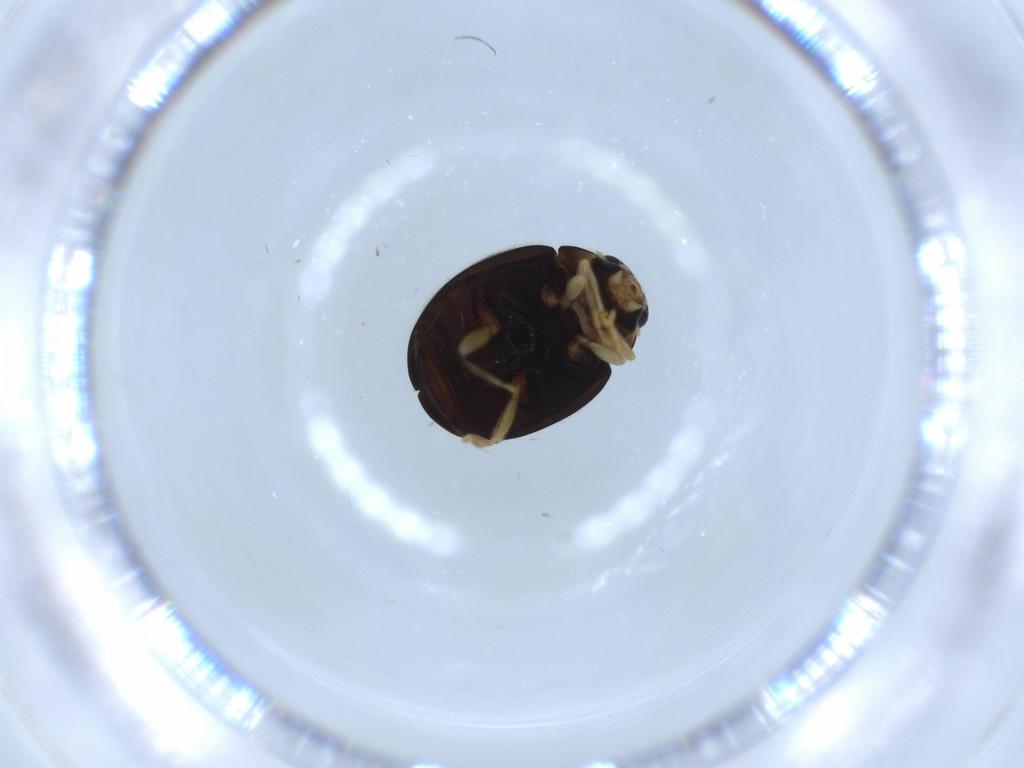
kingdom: Animalia
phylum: Arthropoda
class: Insecta
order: Coleoptera
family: Coccinellidae
